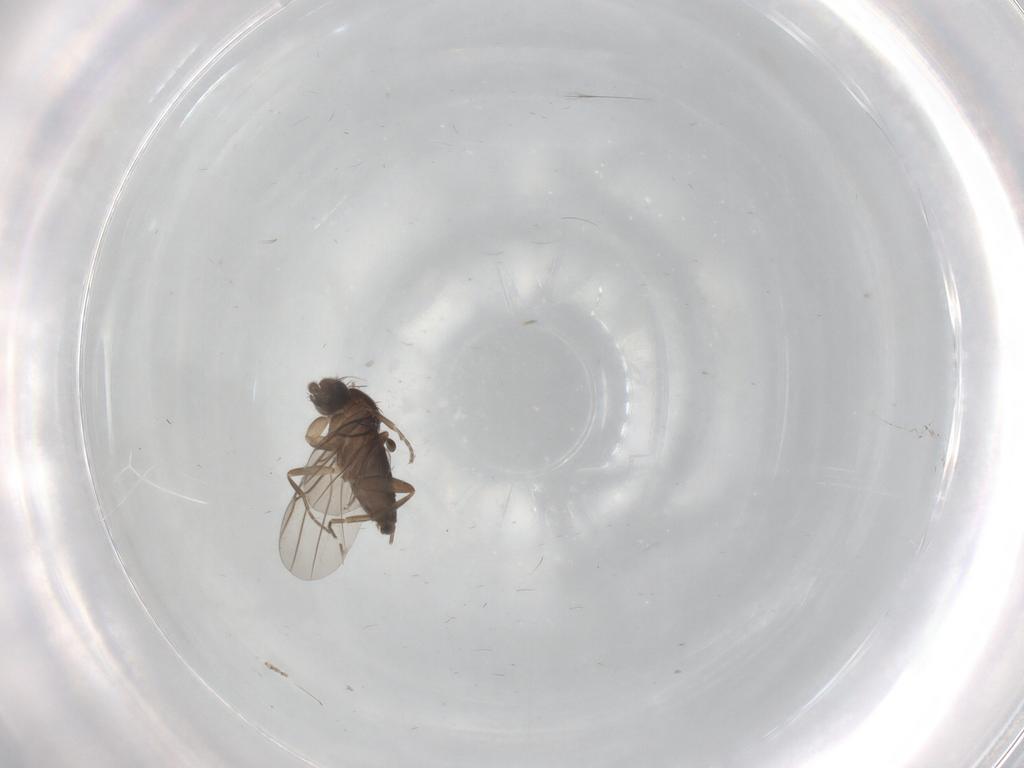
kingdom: Animalia
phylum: Arthropoda
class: Insecta
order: Diptera
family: Phoridae
